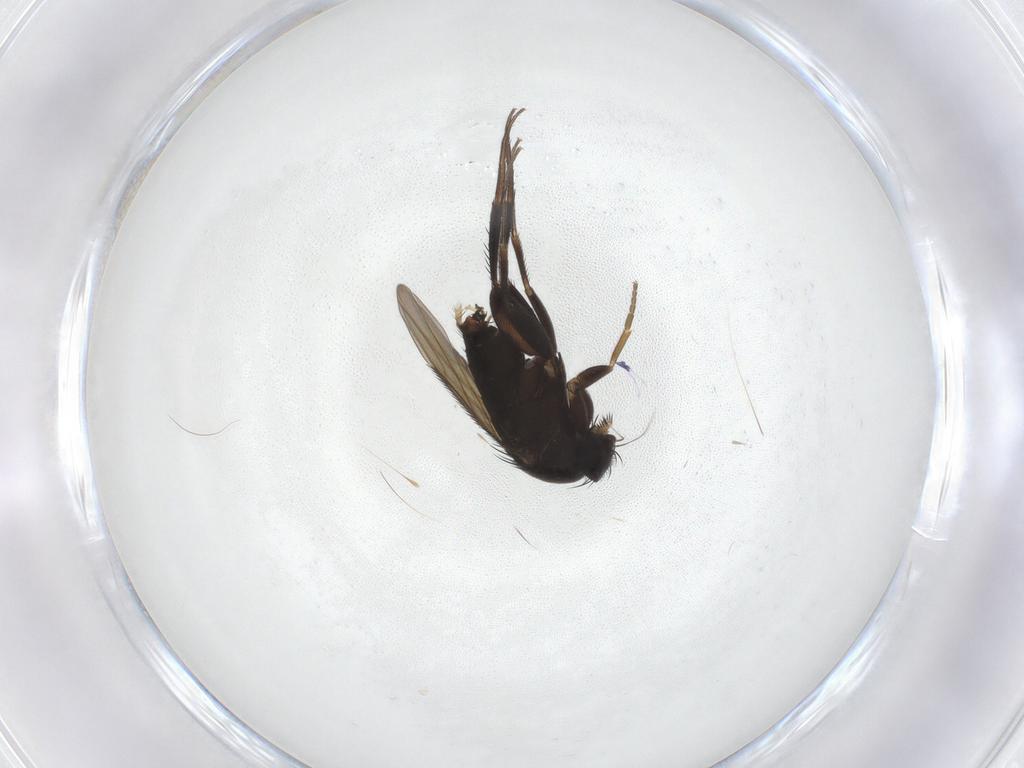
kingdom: Animalia
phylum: Arthropoda
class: Insecta
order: Diptera
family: Phoridae
